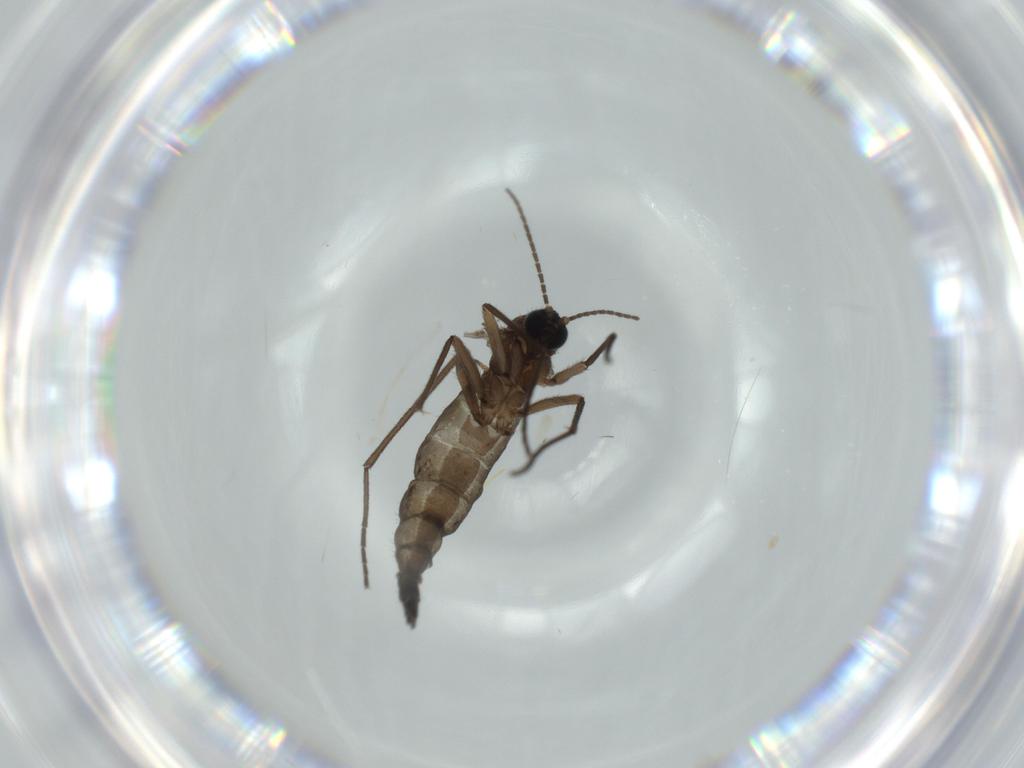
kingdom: Animalia
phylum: Arthropoda
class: Insecta
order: Diptera
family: Sciaridae
